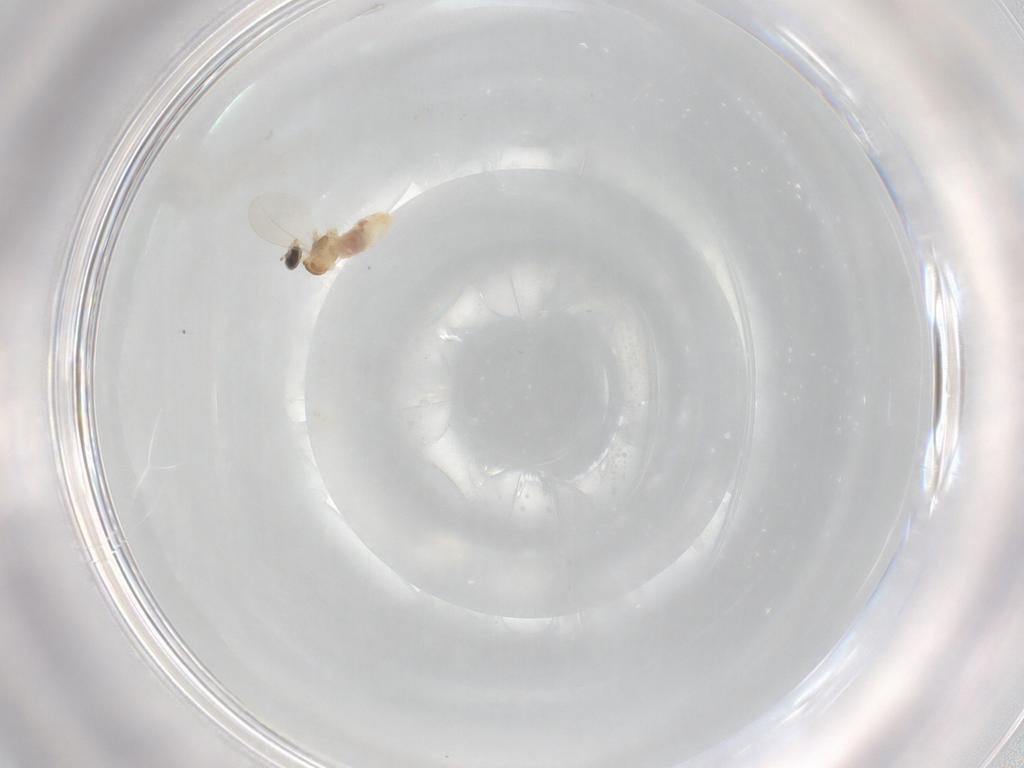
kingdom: Animalia
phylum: Arthropoda
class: Insecta
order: Diptera
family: Cecidomyiidae
